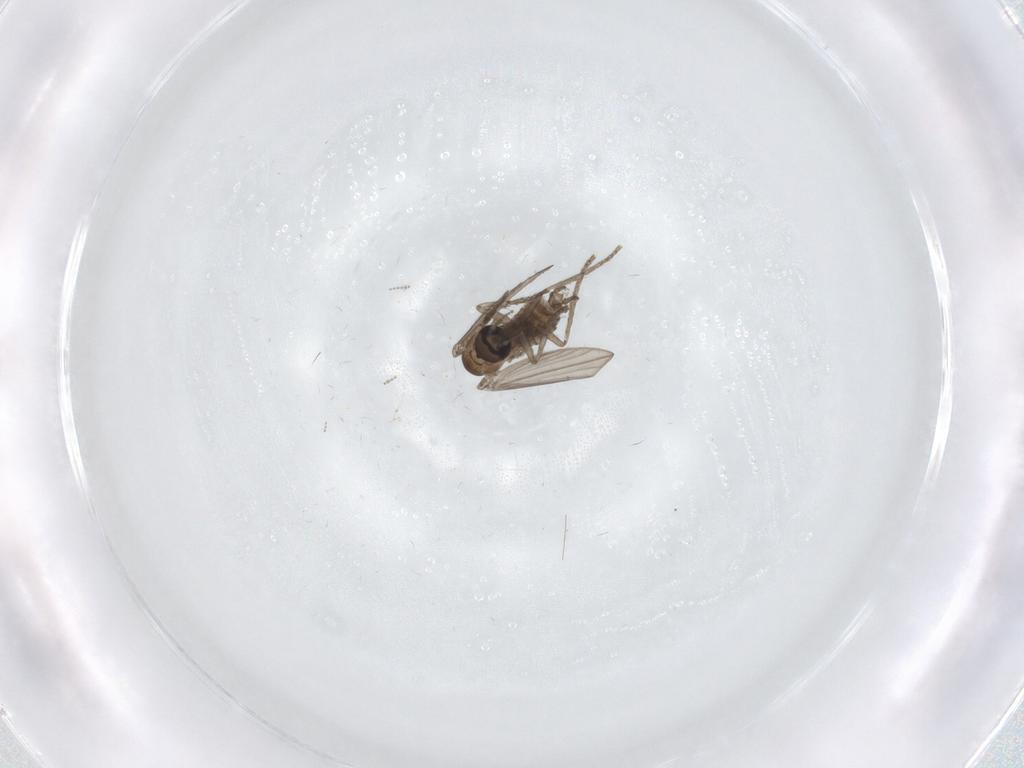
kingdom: Animalia
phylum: Arthropoda
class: Insecta
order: Diptera
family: Psychodidae
